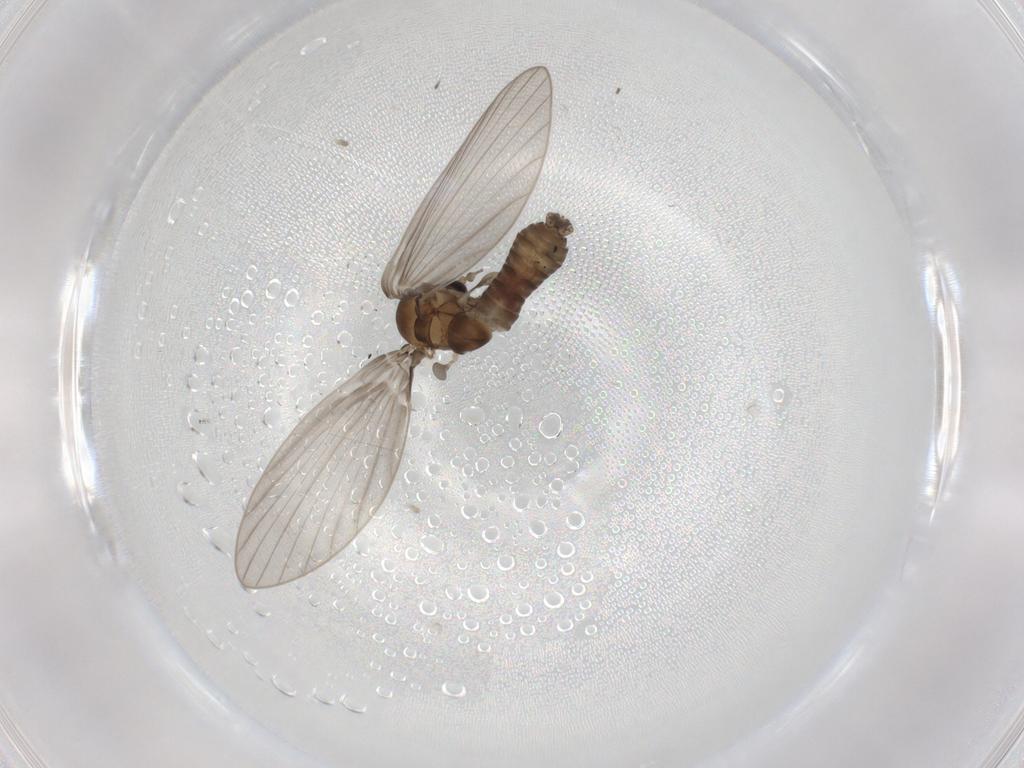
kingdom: Animalia
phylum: Arthropoda
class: Insecta
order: Diptera
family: Psychodidae
